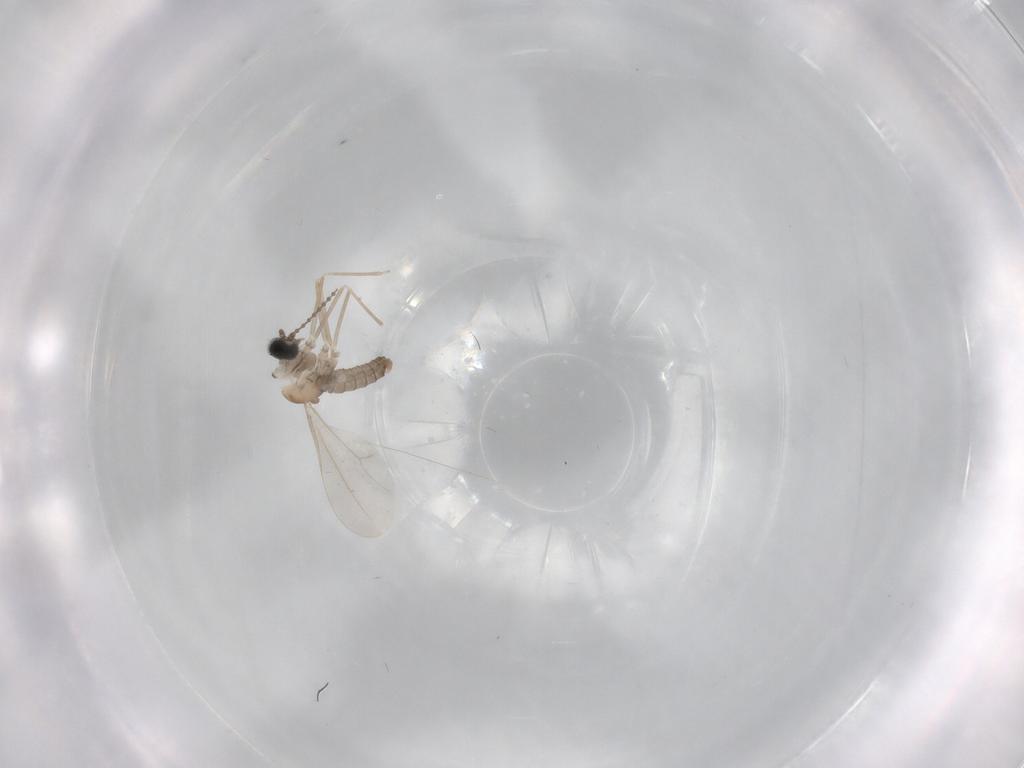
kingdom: Animalia
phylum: Arthropoda
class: Insecta
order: Diptera
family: Cecidomyiidae
